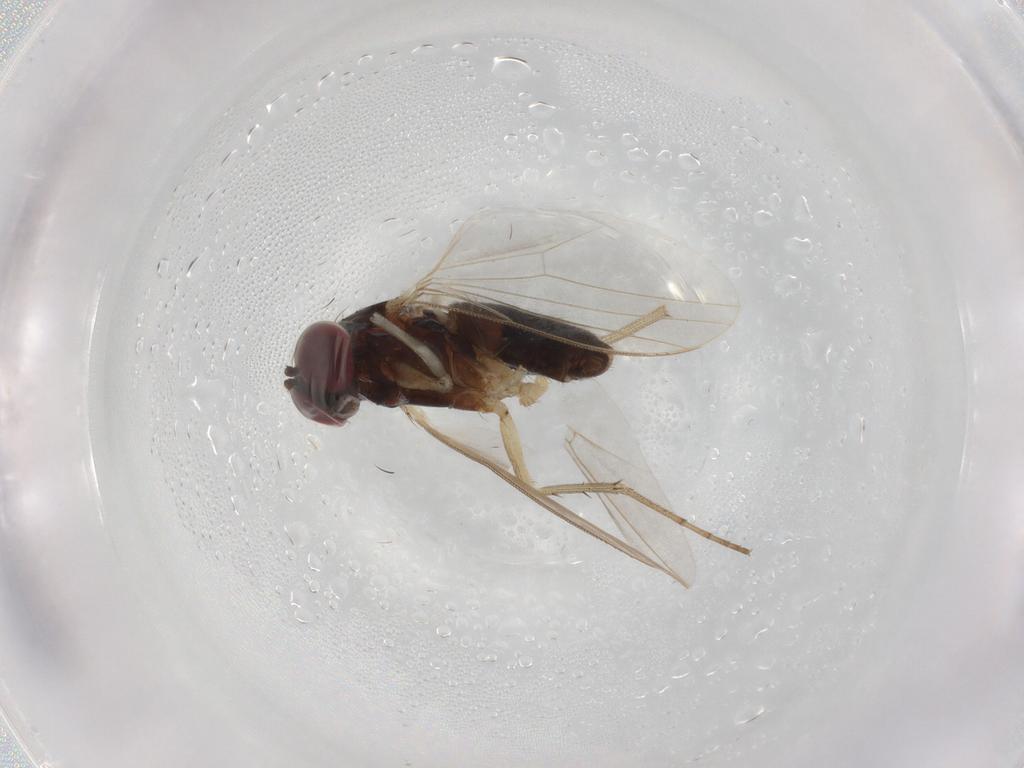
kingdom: Animalia
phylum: Arthropoda
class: Insecta
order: Diptera
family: Dolichopodidae
